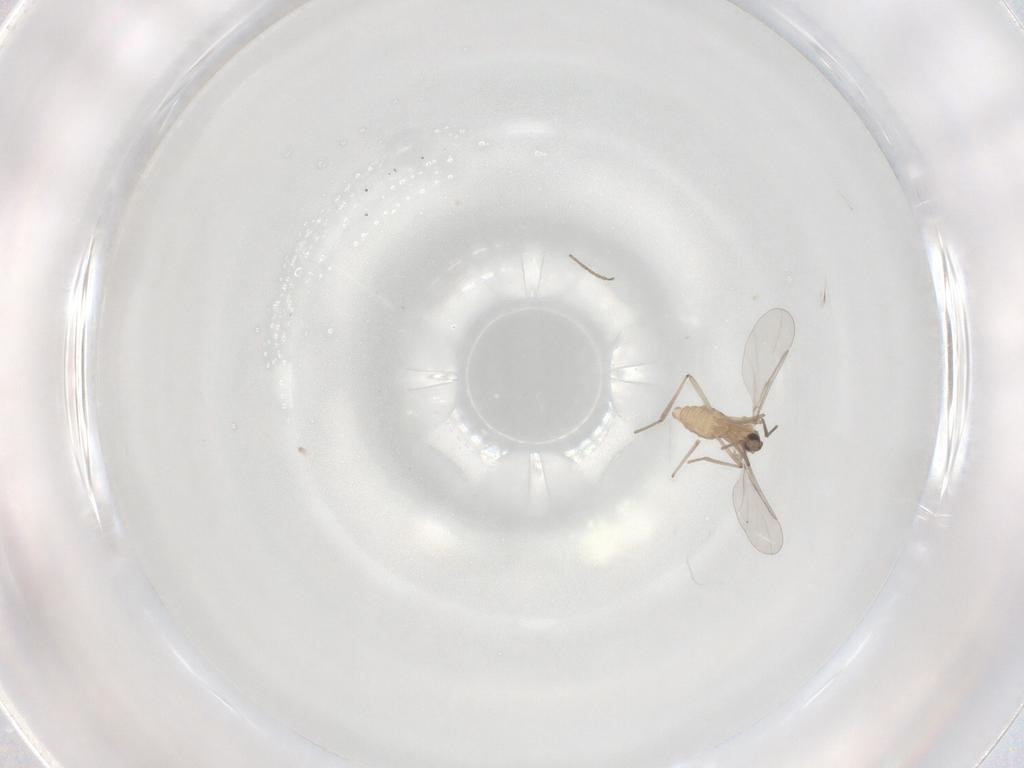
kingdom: Animalia
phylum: Arthropoda
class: Insecta
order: Diptera
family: Cecidomyiidae
